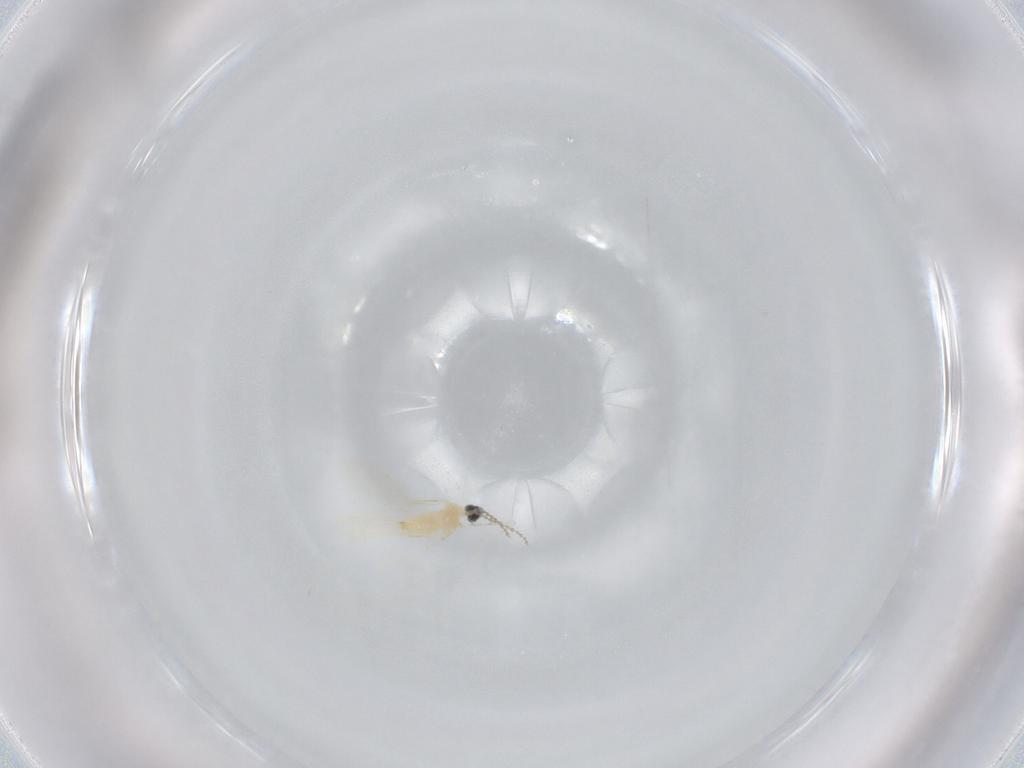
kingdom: Animalia
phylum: Arthropoda
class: Insecta
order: Diptera
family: Cecidomyiidae
